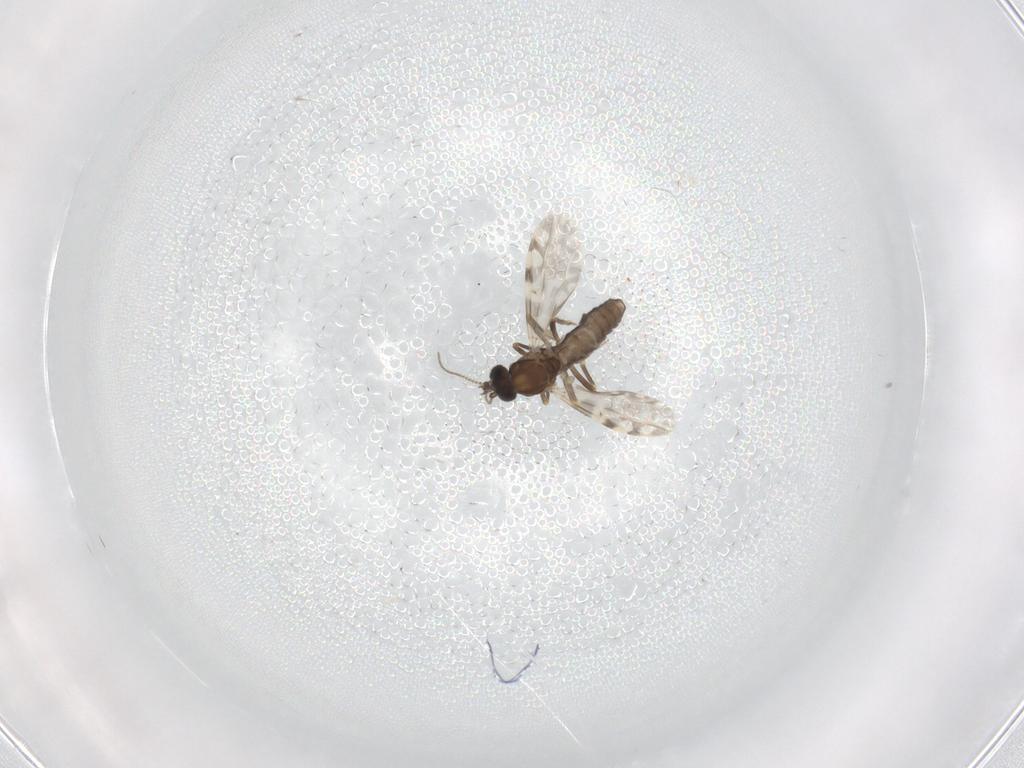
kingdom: Animalia
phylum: Arthropoda
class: Insecta
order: Diptera
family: Ceratopogonidae
